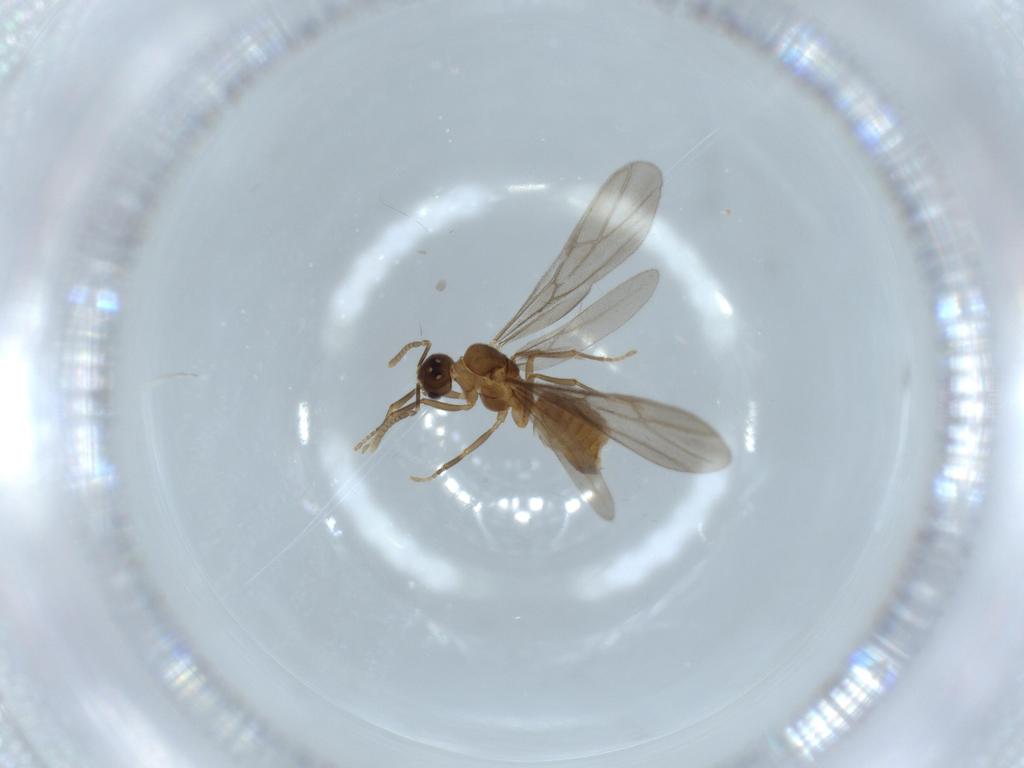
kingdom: Animalia
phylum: Arthropoda
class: Insecta
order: Hymenoptera
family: Formicidae
